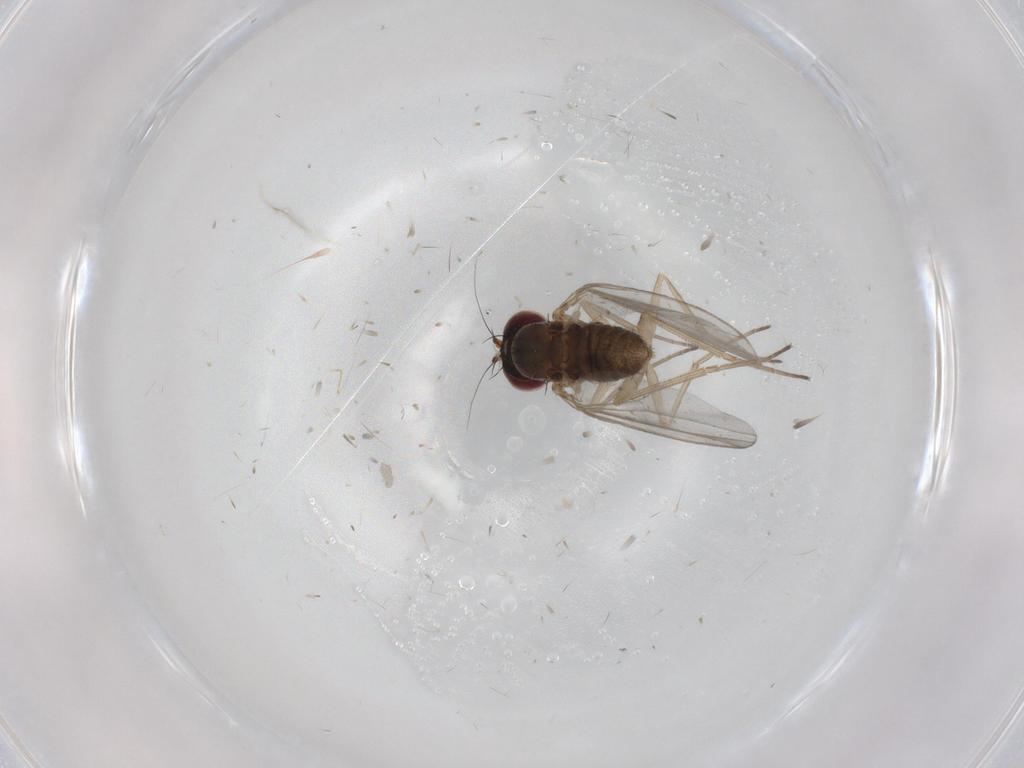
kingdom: Animalia
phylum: Arthropoda
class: Insecta
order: Diptera
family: Dolichopodidae
